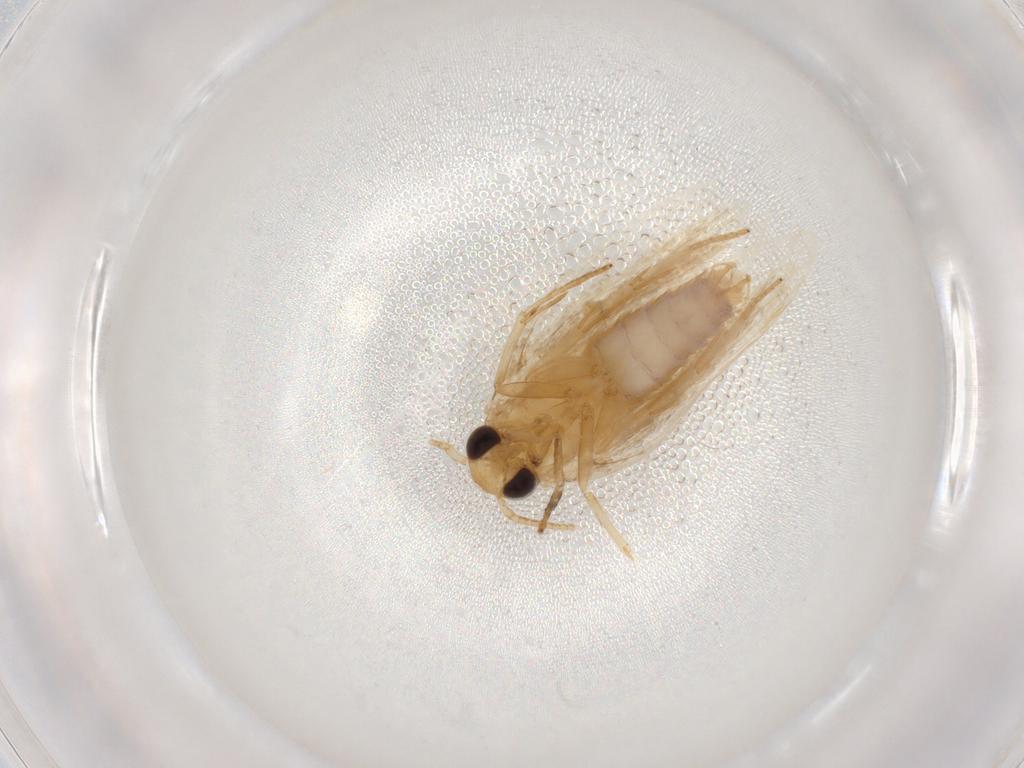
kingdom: Animalia
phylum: Arthropoda
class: Insecta
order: Lepidoptera
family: Depressariidae
